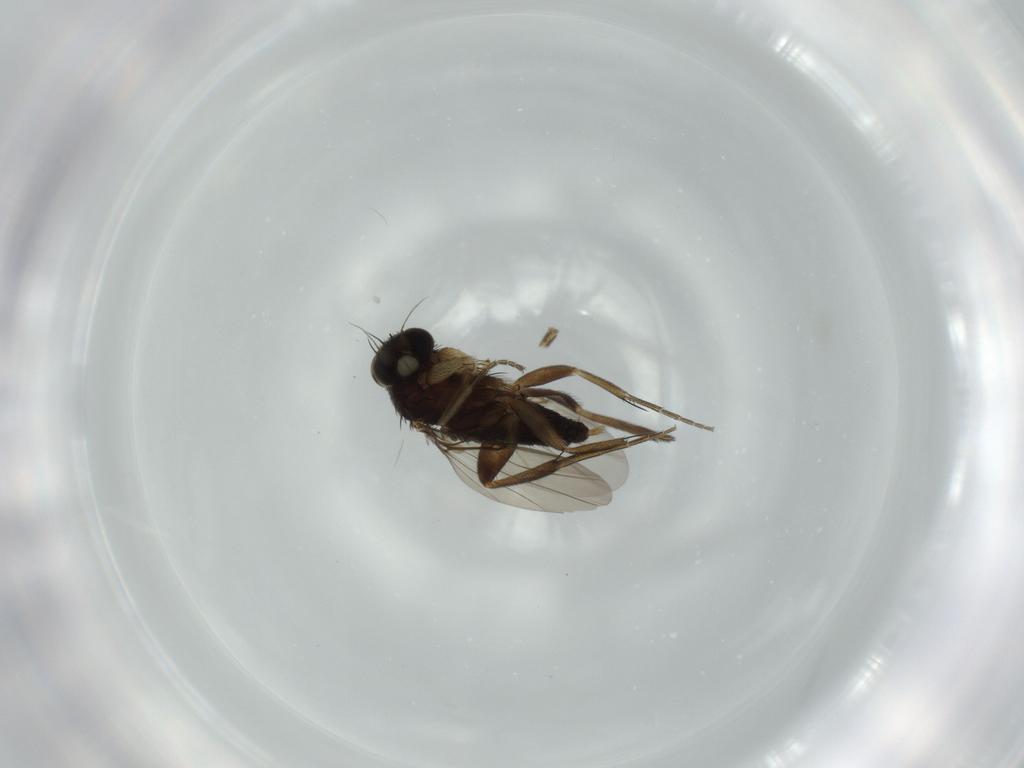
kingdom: Animalia
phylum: Arthropoda
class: Insecta
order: Diptera
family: Phoridae
